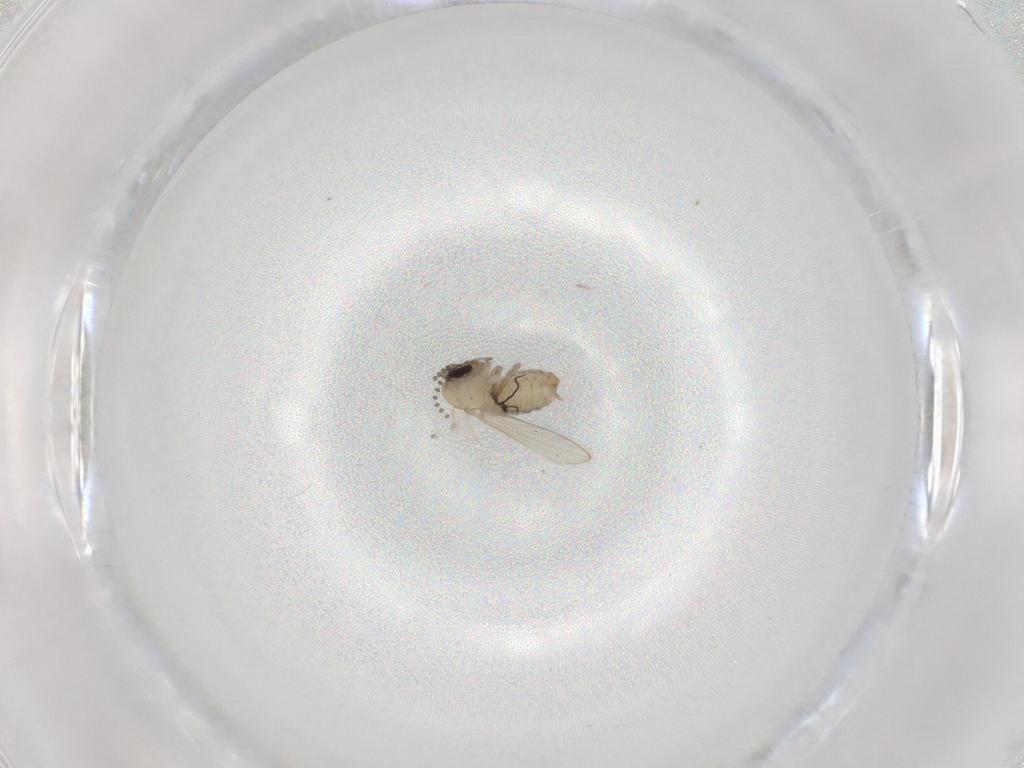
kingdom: Animalia
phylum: Arthropoda
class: Insecta
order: Diptera
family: Psychodidae
